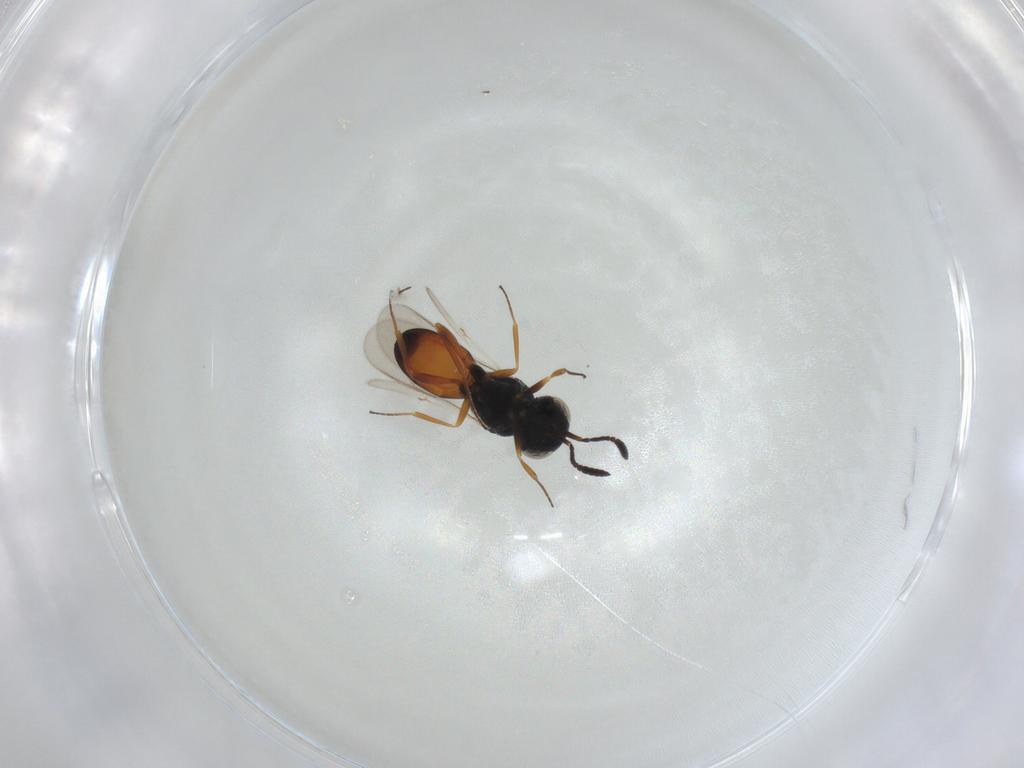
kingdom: Animalia
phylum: Arthropoda
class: Insecta
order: Hymenoptera
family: Scelionidae
